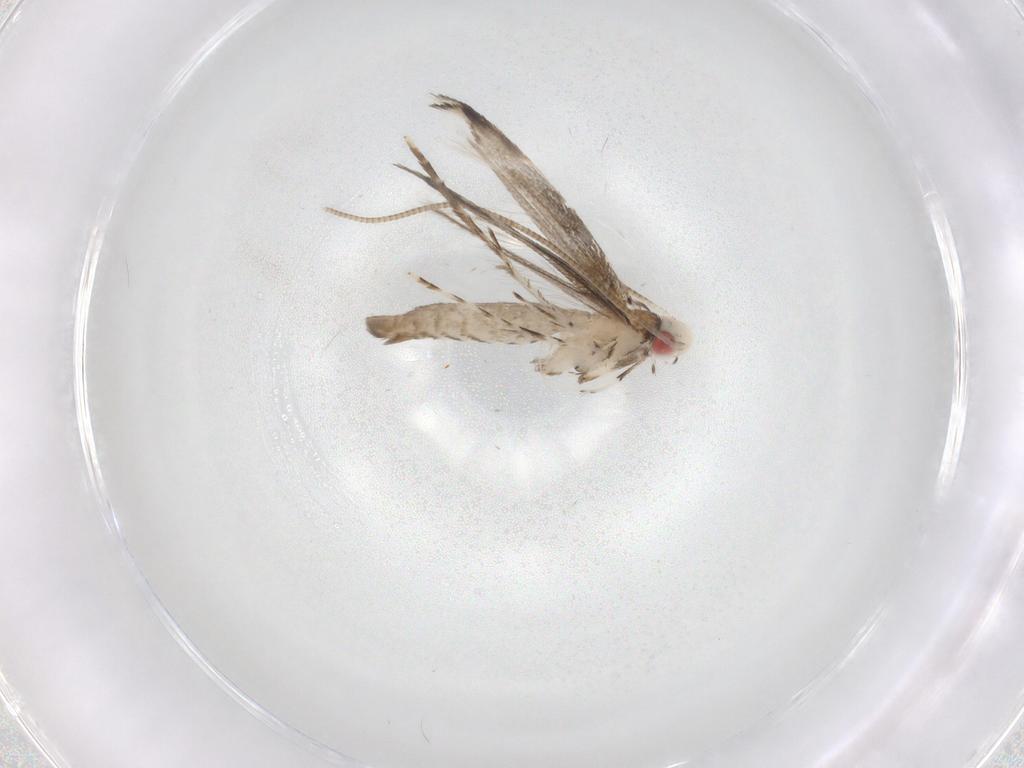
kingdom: Animalia
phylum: Arthropoda
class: Insecta
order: Lepidoptera
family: Gracillariidae
